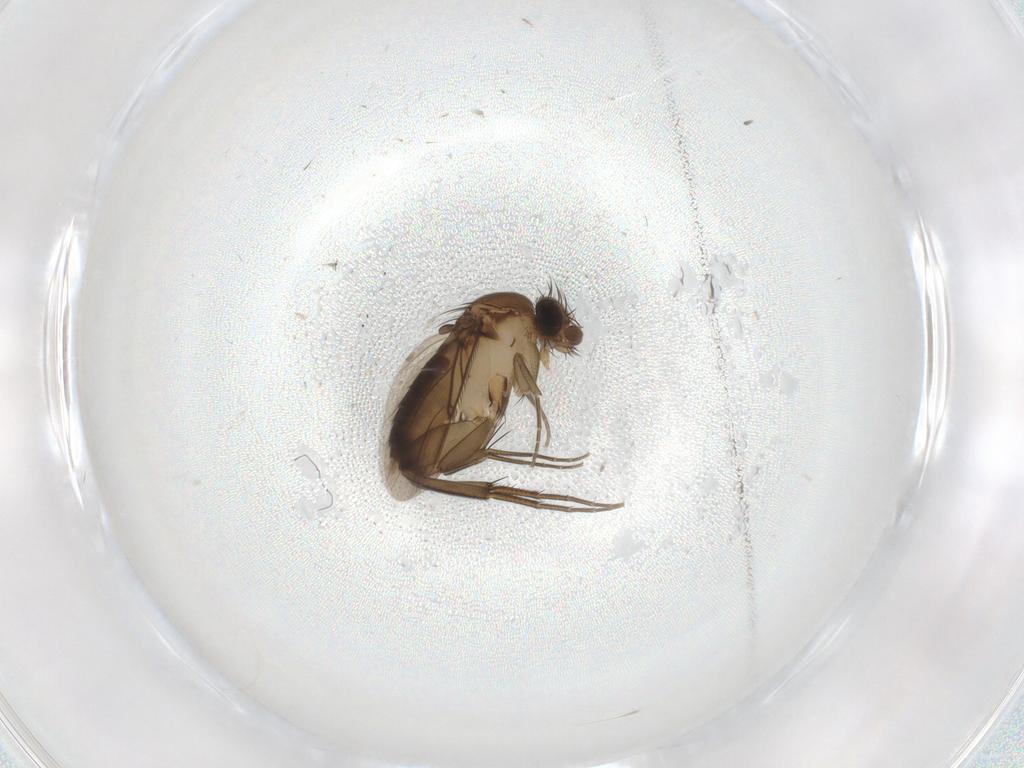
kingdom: Animalia
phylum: Arthropoda
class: Insecta
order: Diptera
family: Phoridae
